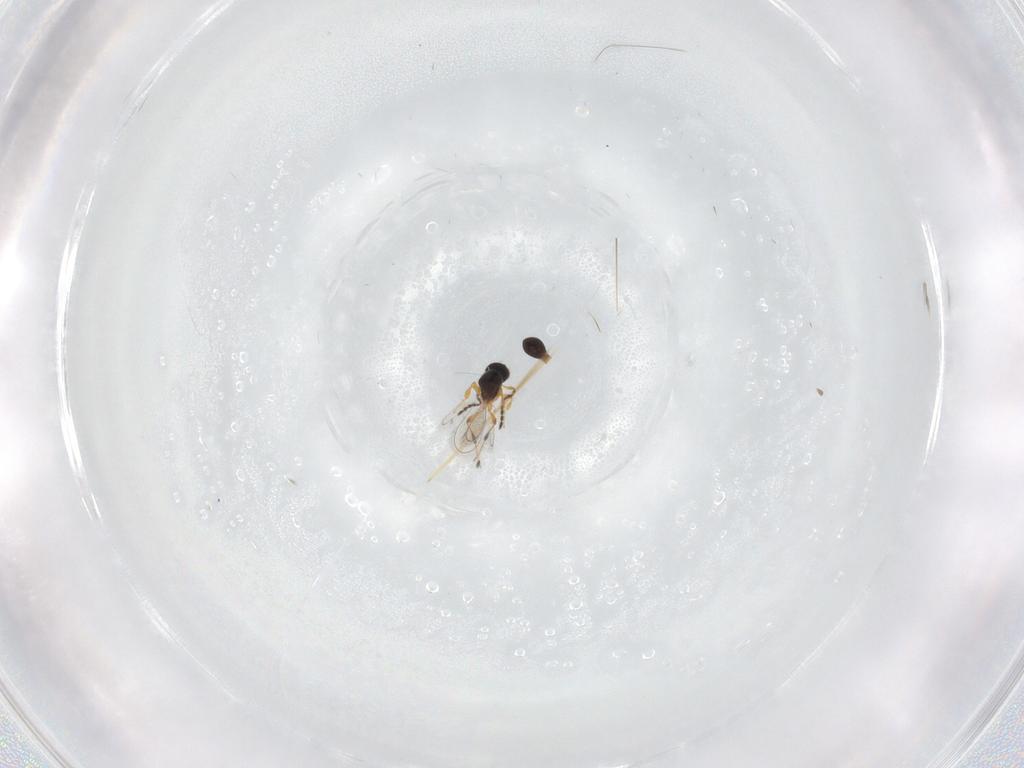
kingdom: Animalia
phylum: Arthropoda
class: Insecta
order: Hymenoptera
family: Platygastridae
